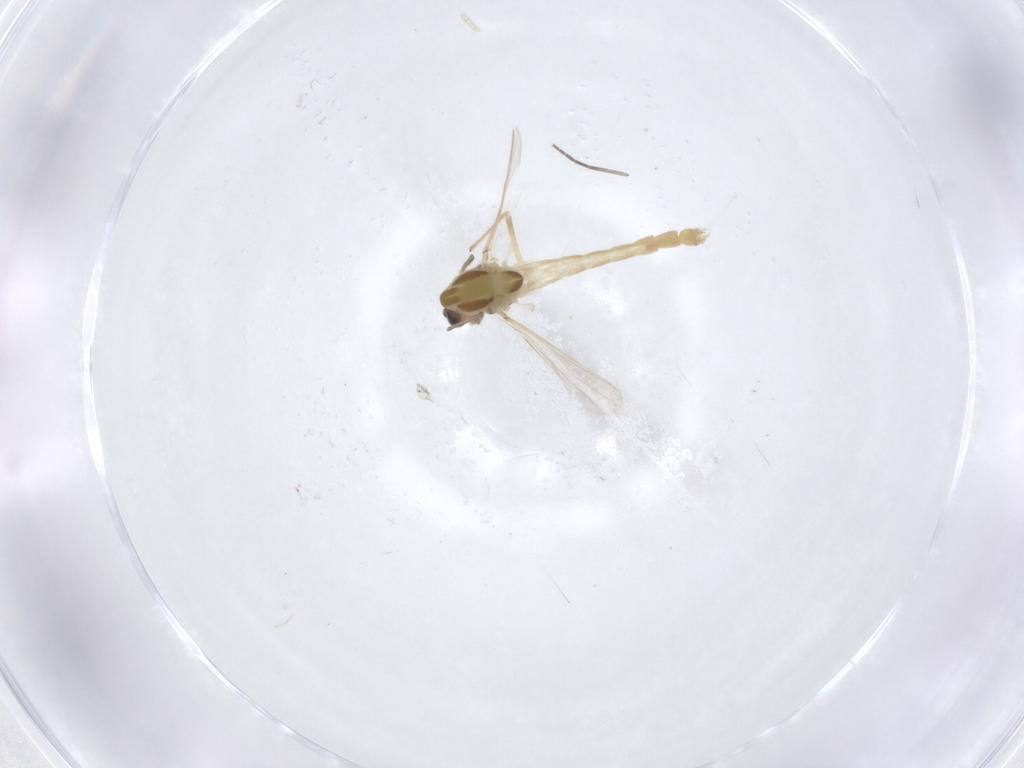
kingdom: Animalia
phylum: Arthropoda
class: Insecta
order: Diptera
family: Chironomidae
